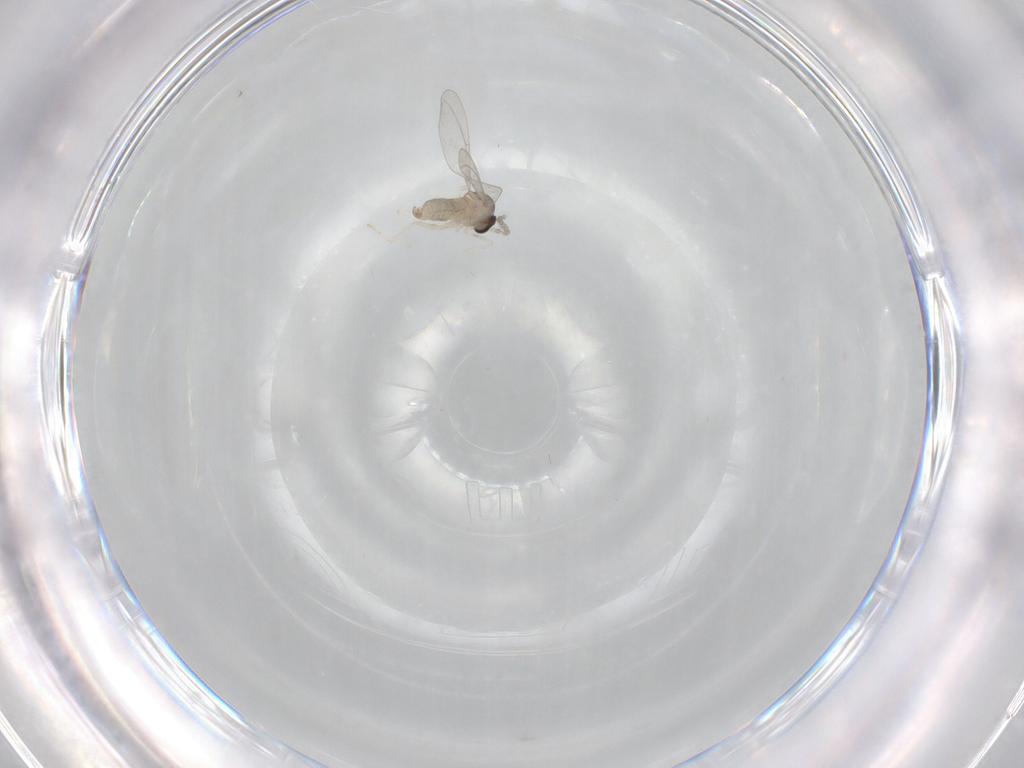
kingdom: Animalia
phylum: Arthropoda
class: Insecta
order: Diptera
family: Cecidomyiidae
